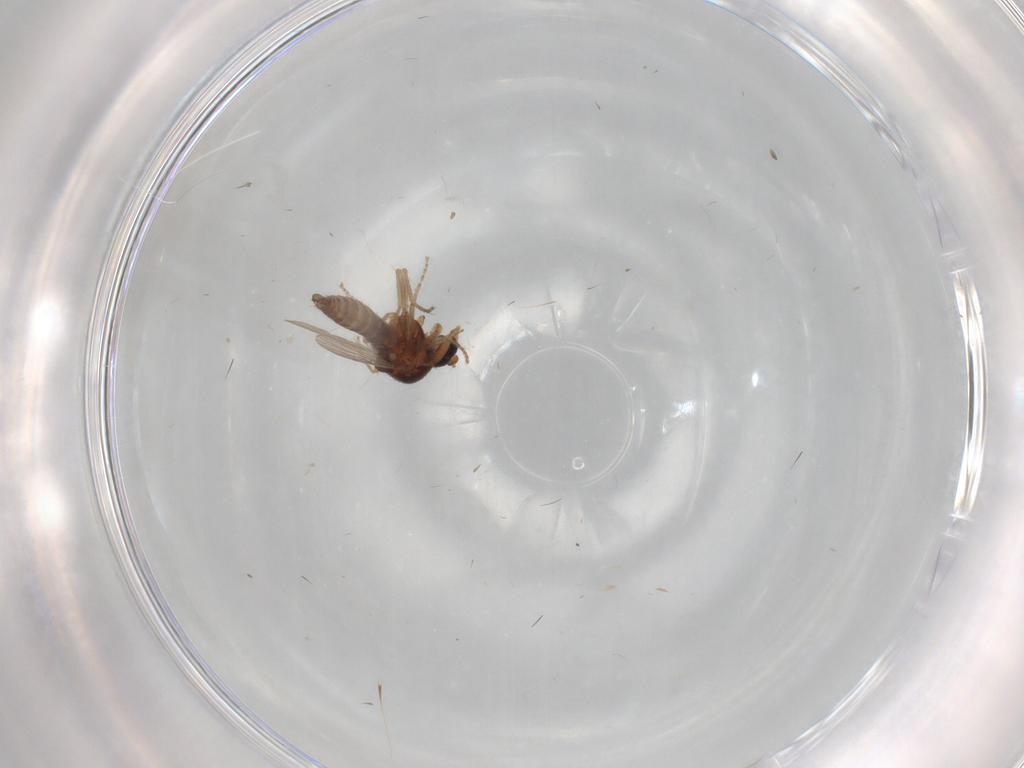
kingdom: Animalia
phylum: Arthropoda
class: Insecta
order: Diptera
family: Ceratopogonidae
